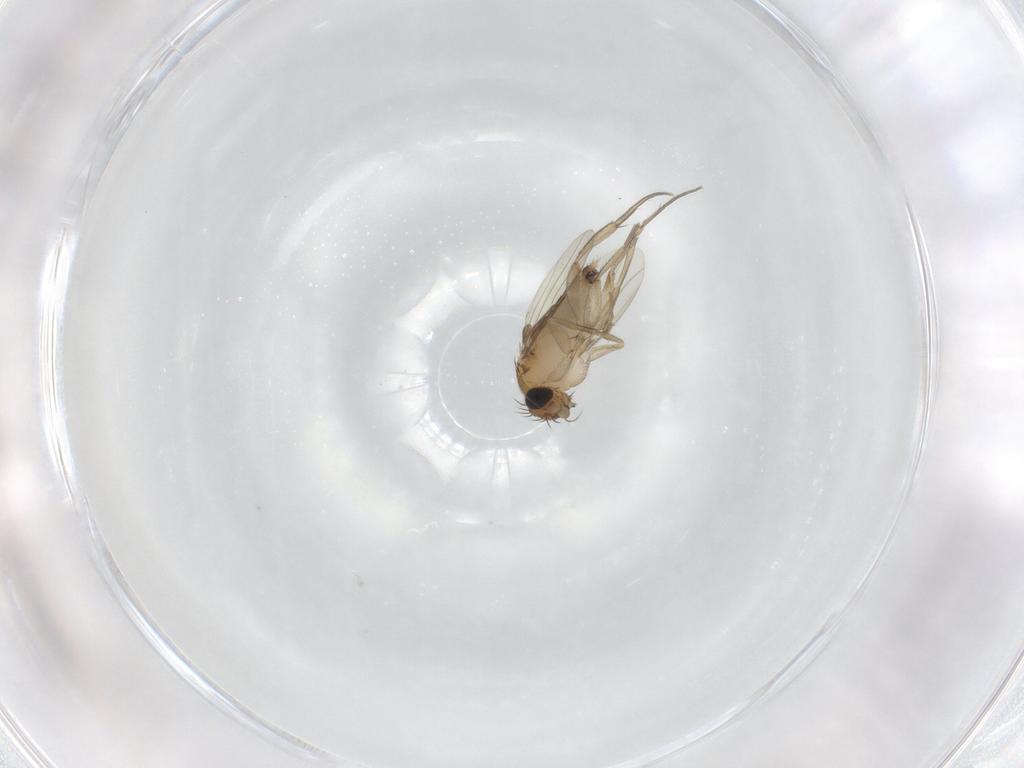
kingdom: Animalia
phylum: Arthropoda
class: Insecta
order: Diptera
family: Phoridae
